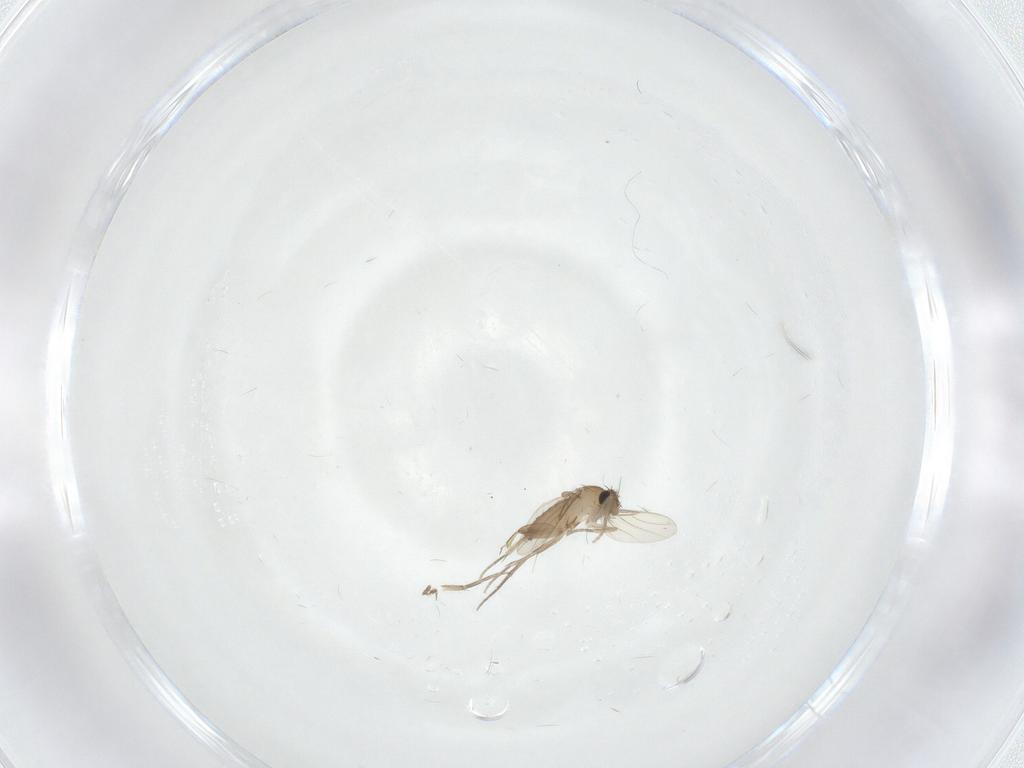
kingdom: Animalia
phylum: Arthropoda
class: Insecta
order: Diptera
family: Phoridae
